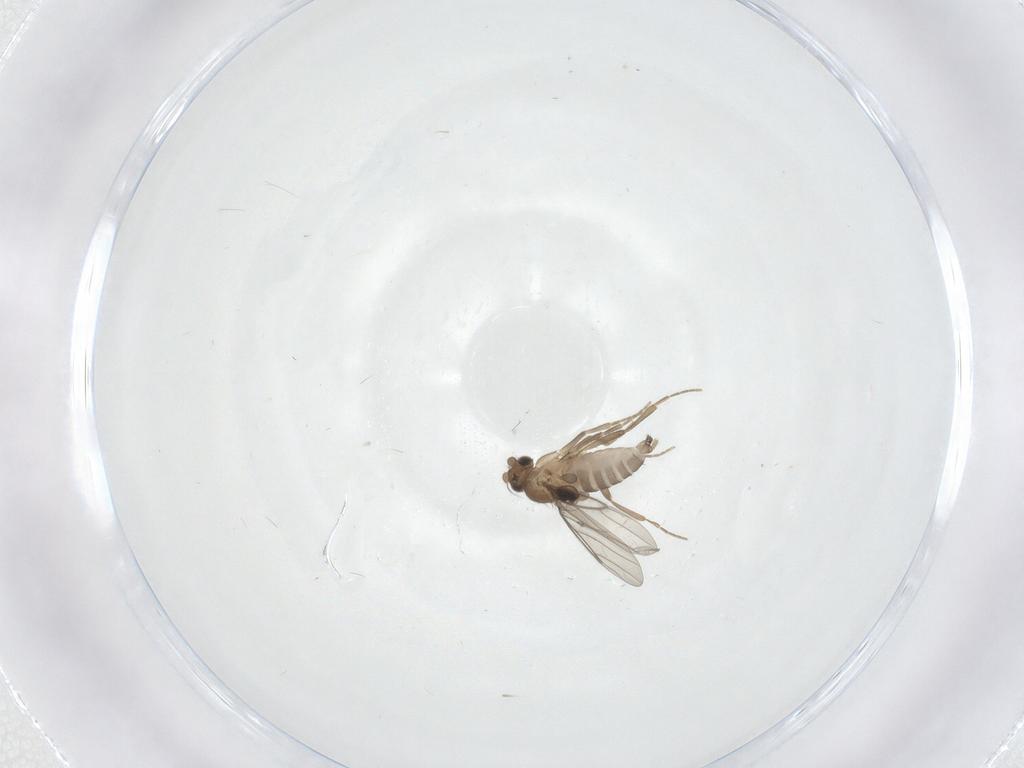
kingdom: Animalia
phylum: Arthropoda
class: Insecta
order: Diptera
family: Psychodidae
